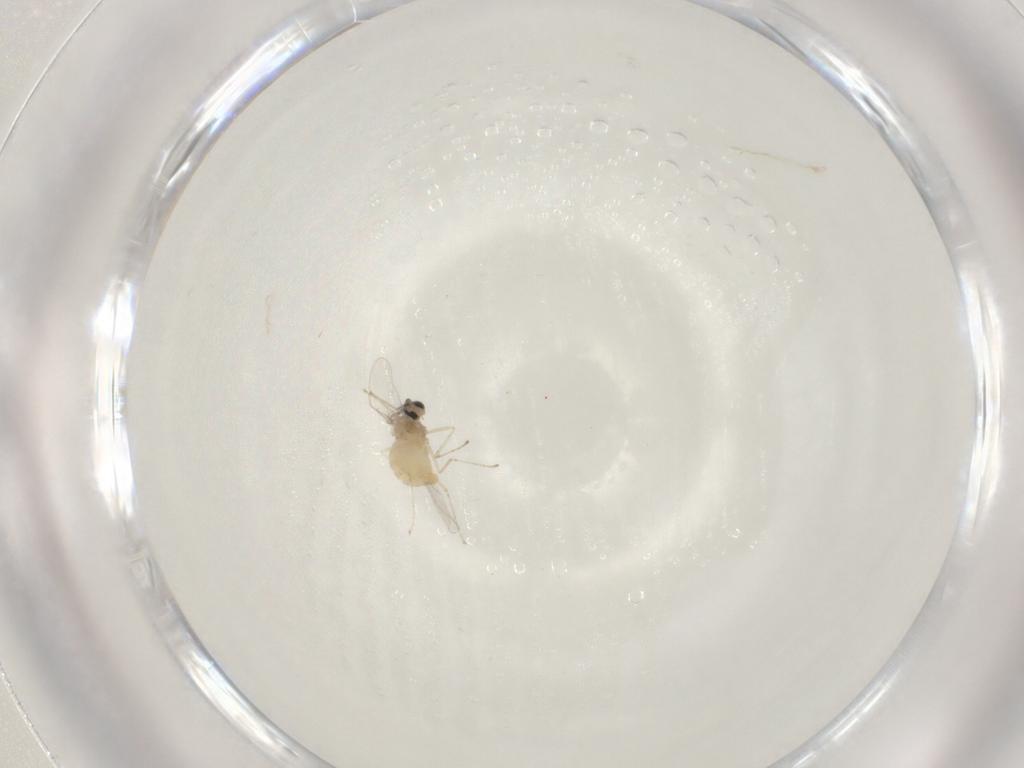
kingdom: Animalia
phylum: Arthropoda
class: Insecta
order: Diptera
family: Cecidomyiidae
